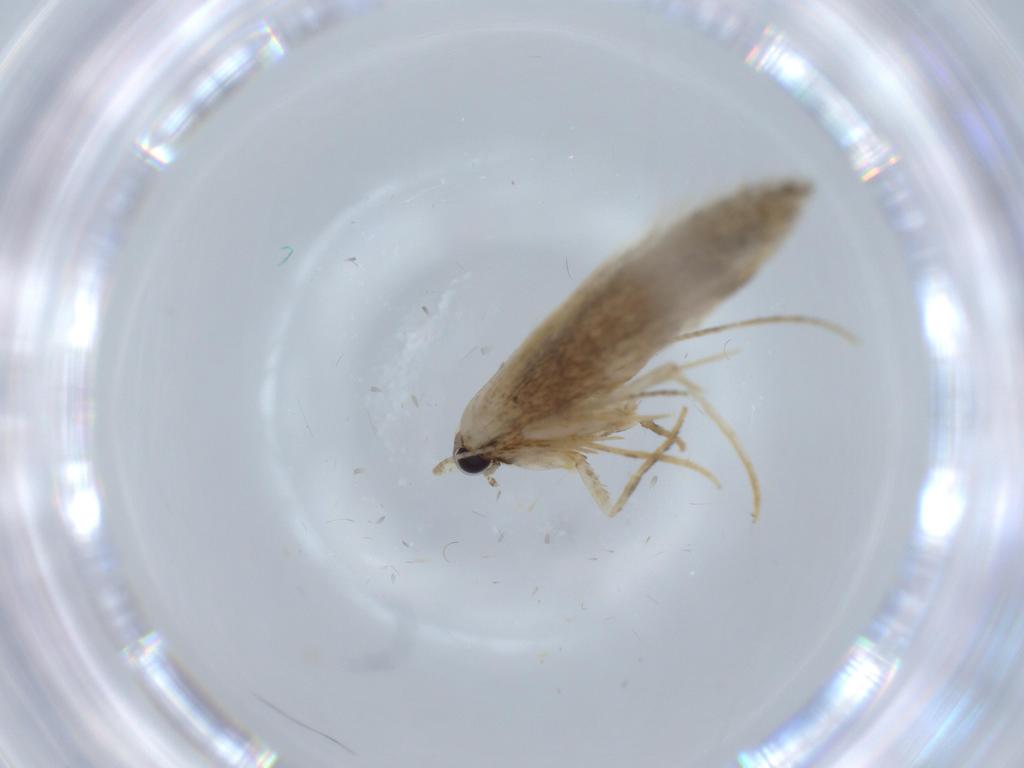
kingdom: Animalia
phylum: Arthropoda
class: Insecta
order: Lepidoptera
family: Tineidae
